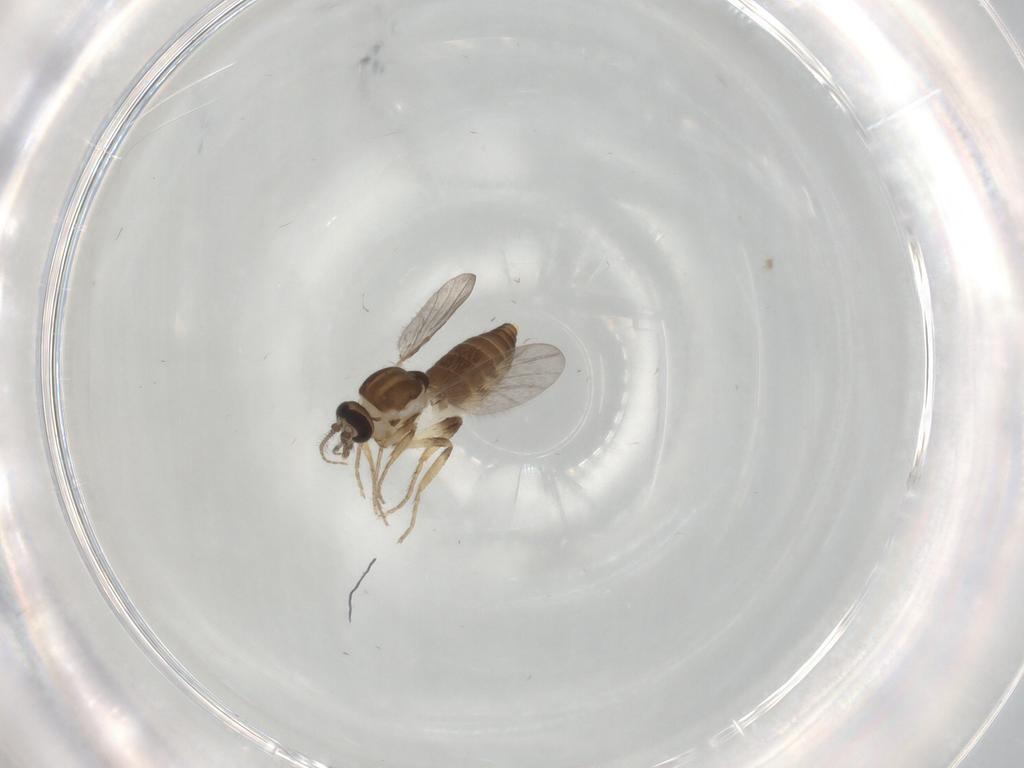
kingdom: Animalia
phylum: Arthropoda
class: Insecta
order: Diptera
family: Ceratopogonidae
